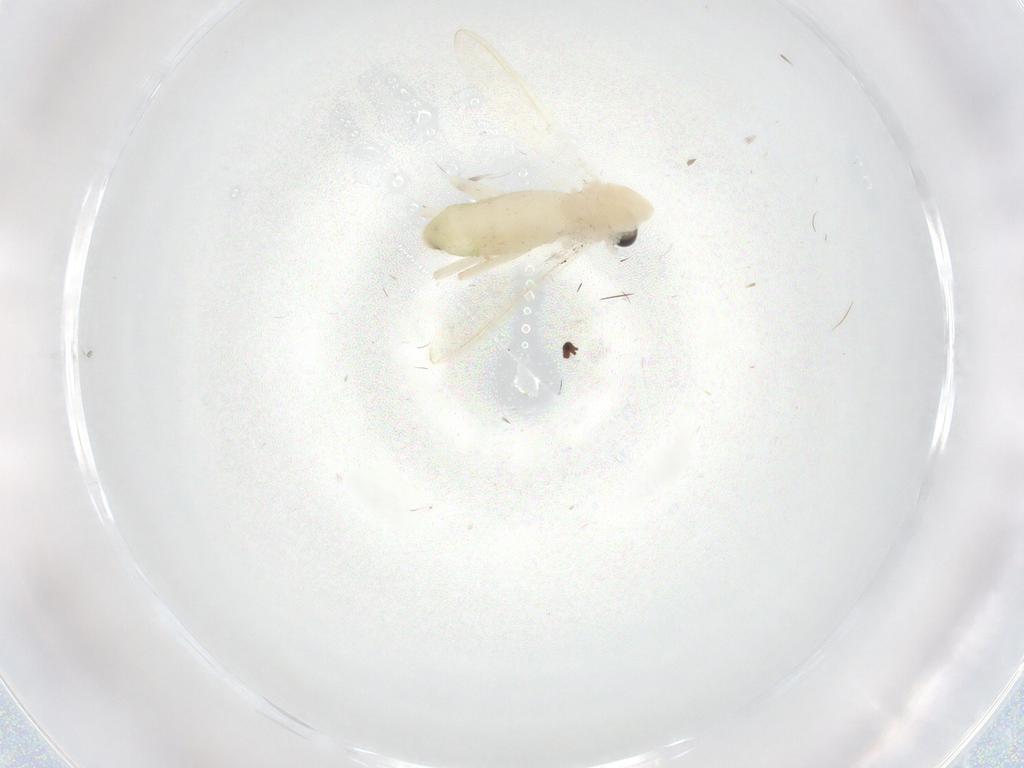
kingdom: Animalia
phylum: Arthropoda
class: Insecta
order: Diptera
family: Chironomidae
